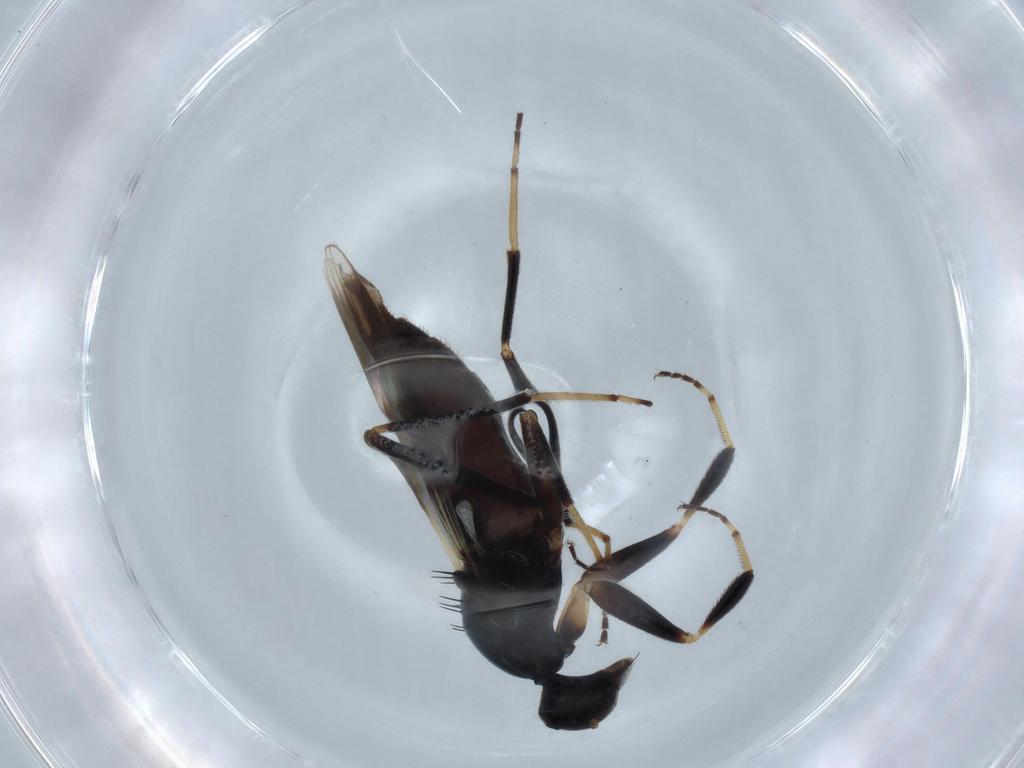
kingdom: Animalia
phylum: Arthropoda
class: Insecta
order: Diptera
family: Hybotidae
